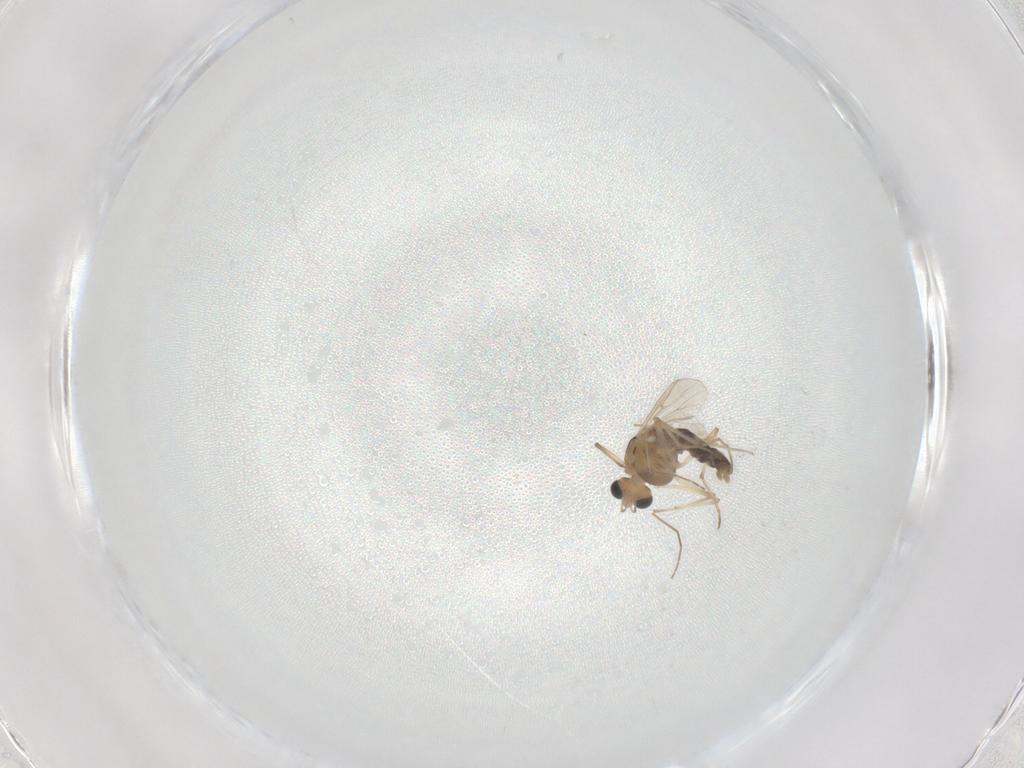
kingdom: Animalia
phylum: Arthropoda
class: Insecta
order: Diptera
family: Chironomidae
